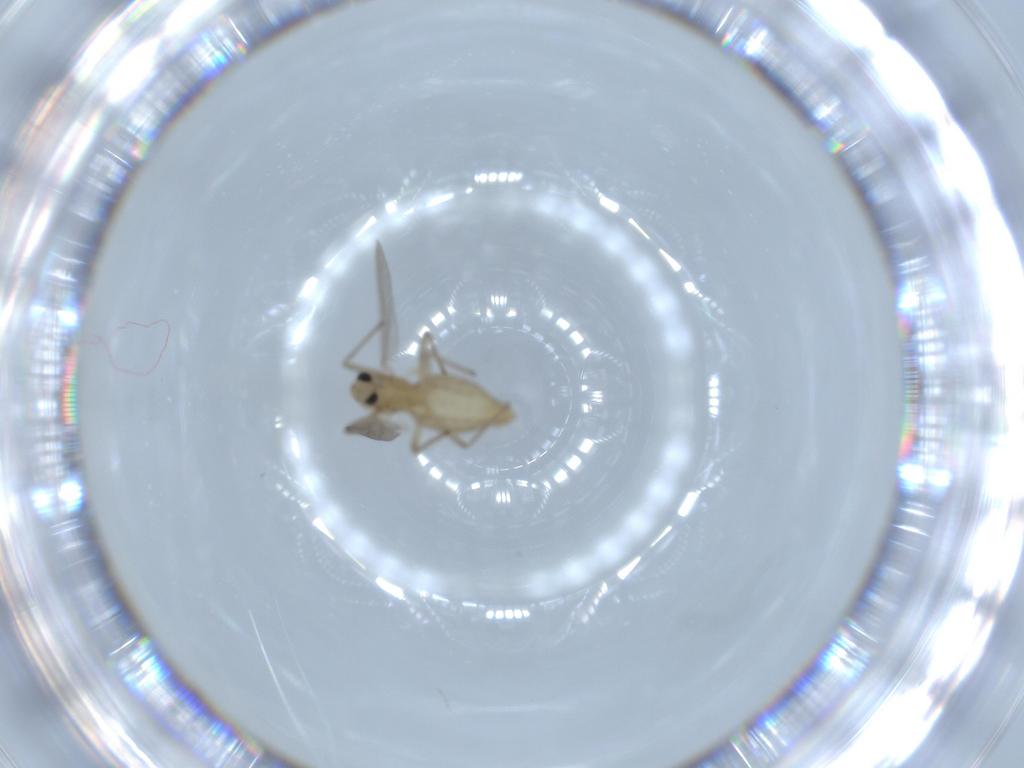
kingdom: Animalia
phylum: Arthropoda
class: Insecta
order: Diptera
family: Chironomidae
